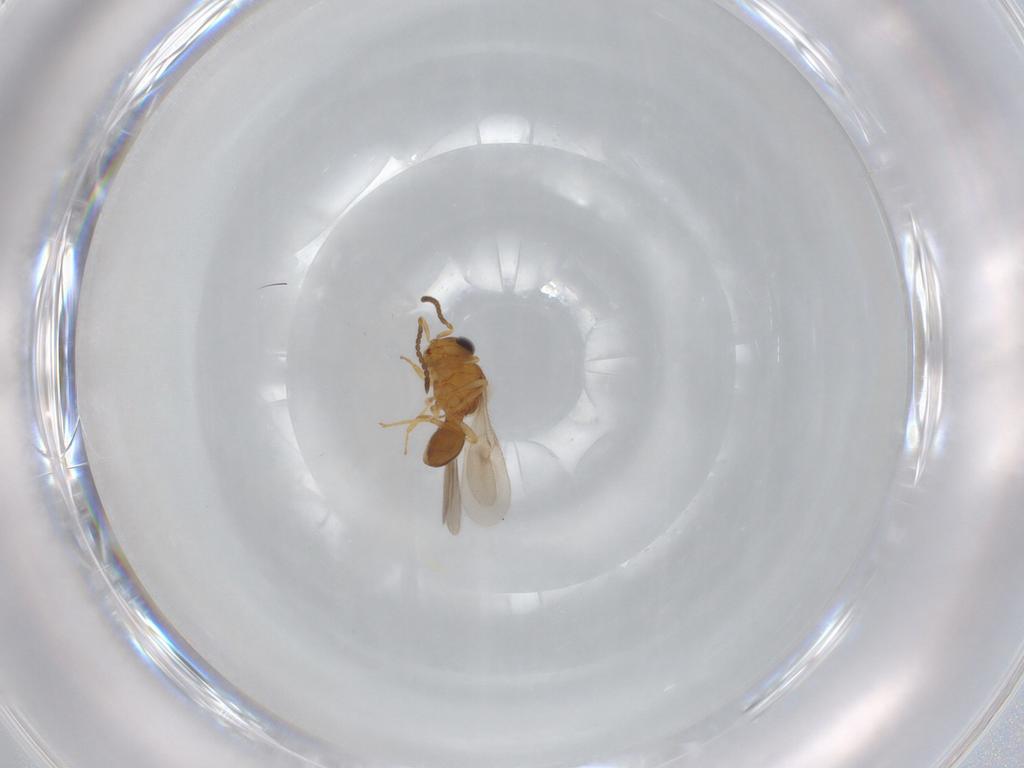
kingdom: Animalia
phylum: Arthropoda
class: Insecta
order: Hymenoptera
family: Scelionidae
